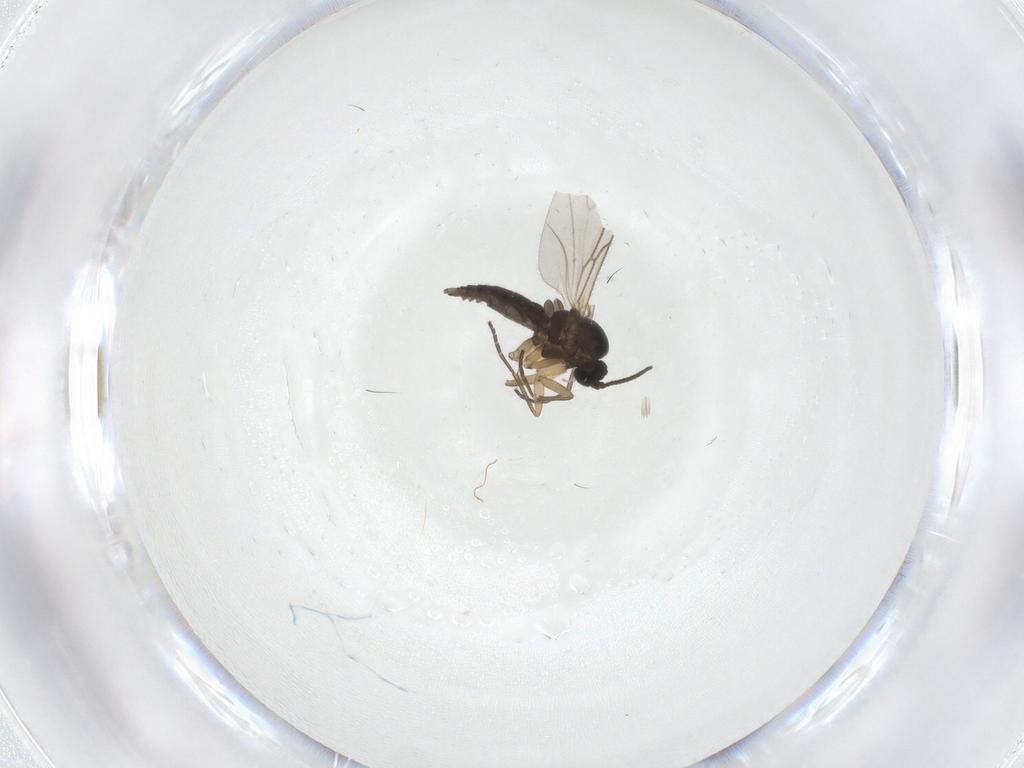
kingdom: Animalia
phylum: Arthropoda
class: Insecta
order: Diptera
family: Sciaridae
